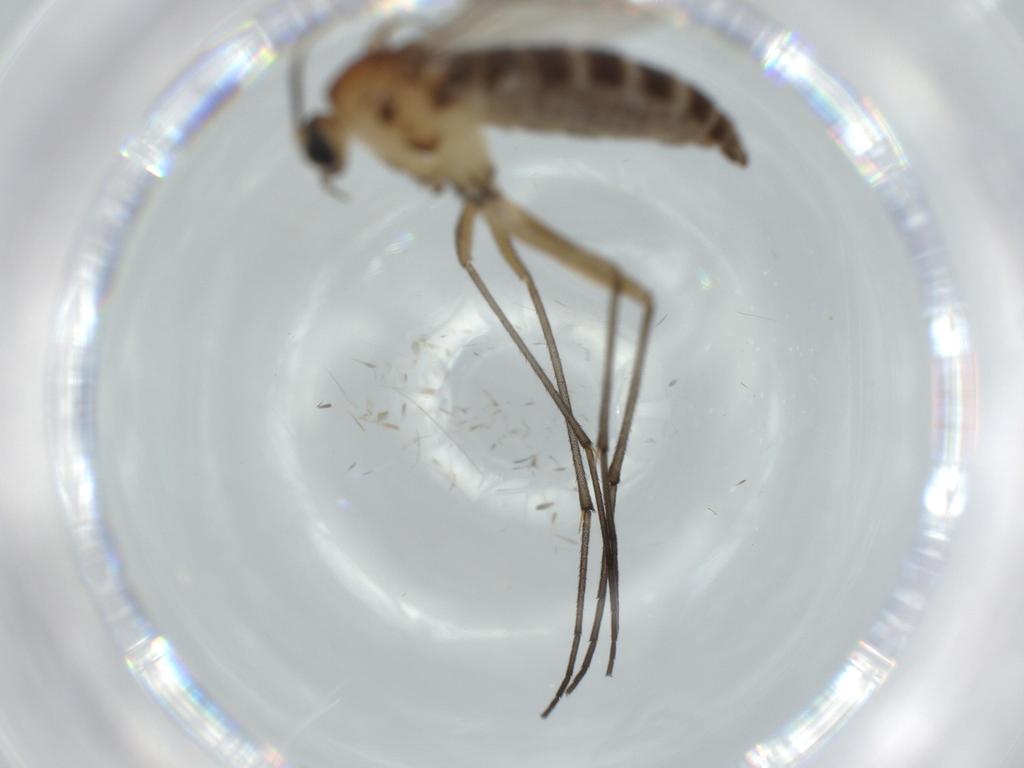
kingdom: Animalia
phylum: Arthropoda
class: Insecta
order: Diptera
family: Sciaridae
